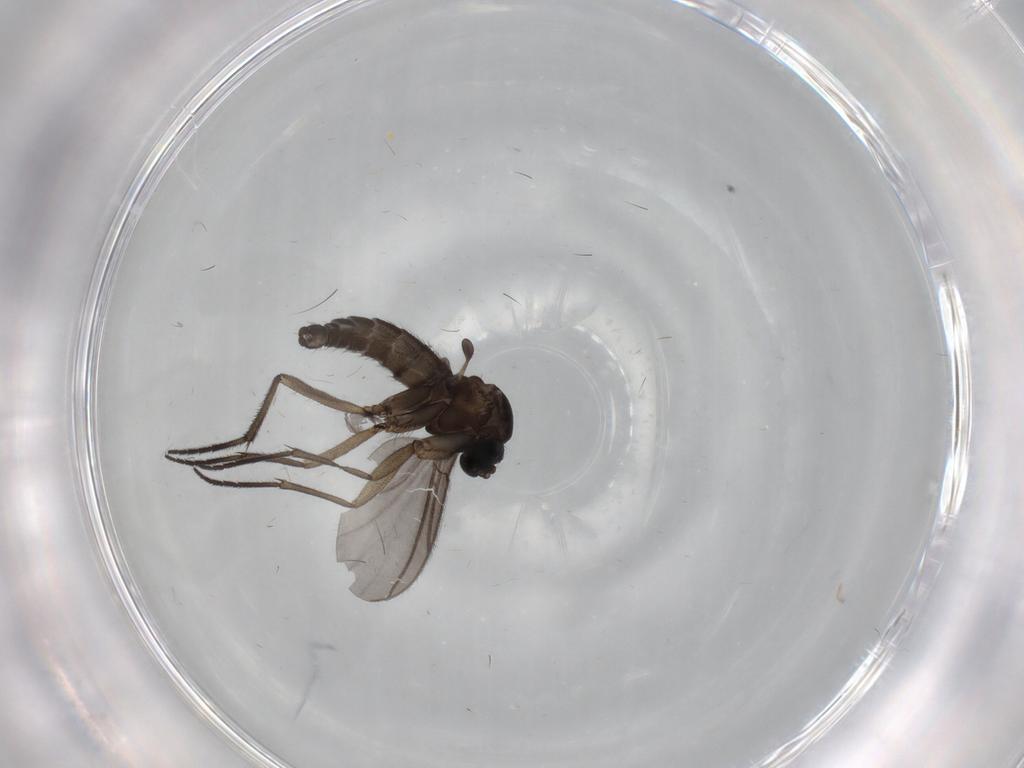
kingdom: Animalia
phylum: Arthropoda
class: Insecta
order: Diptera
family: Sciaridae
